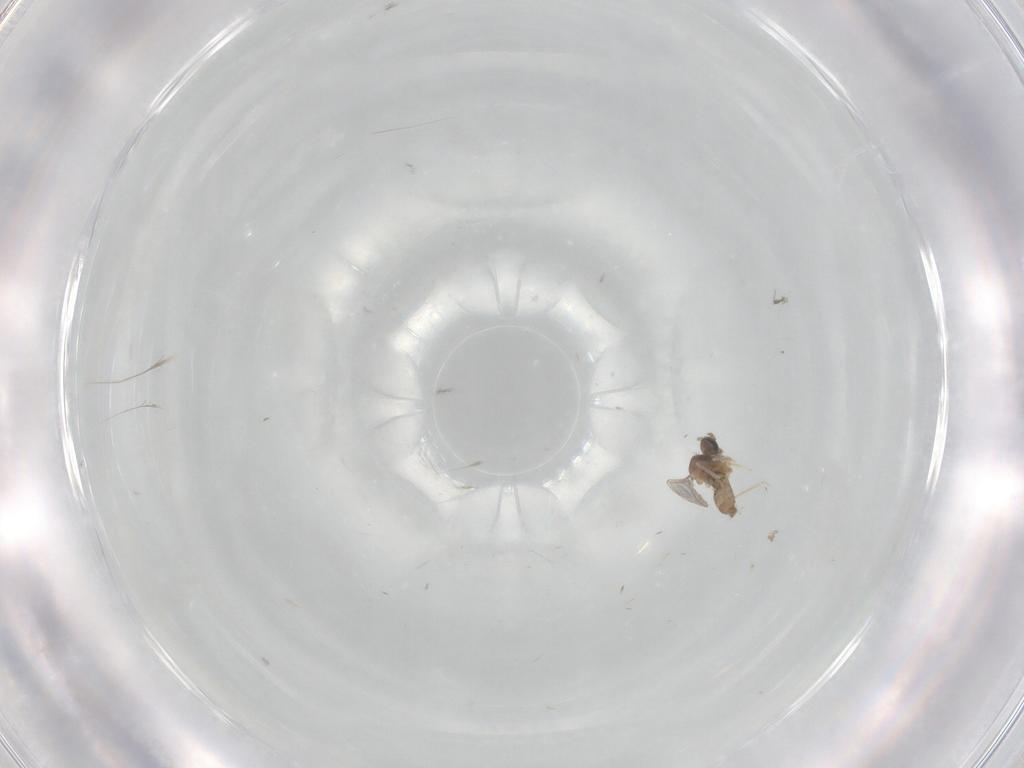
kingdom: Animalia
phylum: Arthropoda
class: Insecta
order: Diptera
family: Cecidomyiidae
